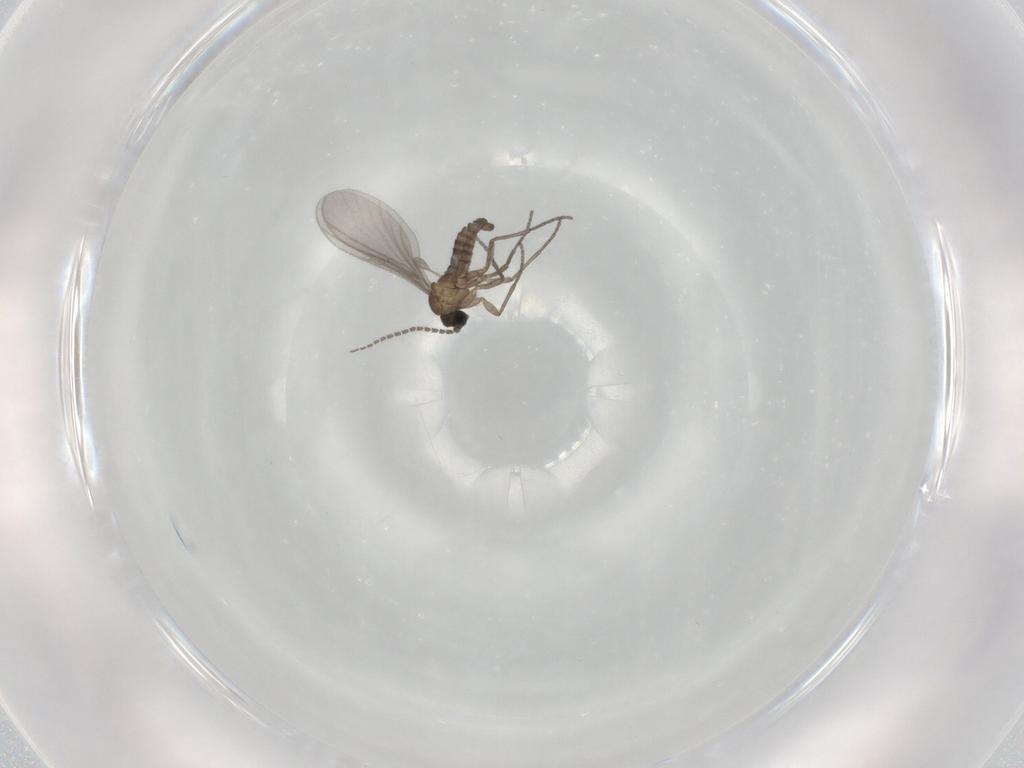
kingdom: Animalia
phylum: Arthropoda
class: Insecta
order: Diptera
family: Sciaridae
